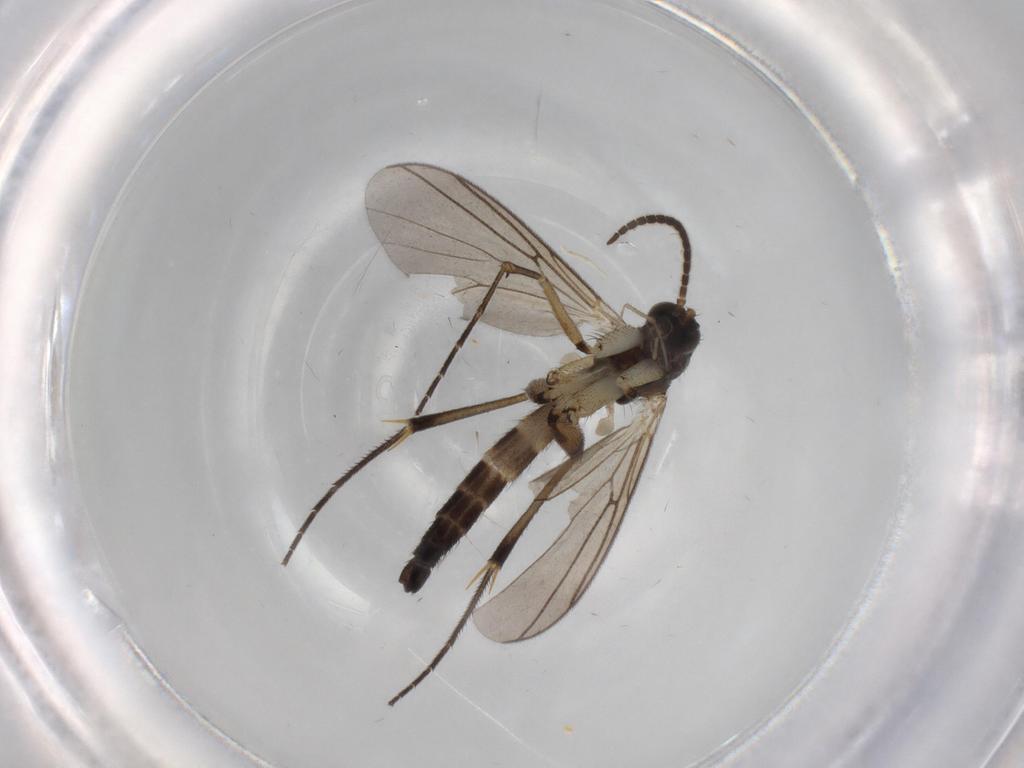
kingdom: Animalia
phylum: Arthropoda
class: Insecta
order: Diptera
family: Mycetophilidae
